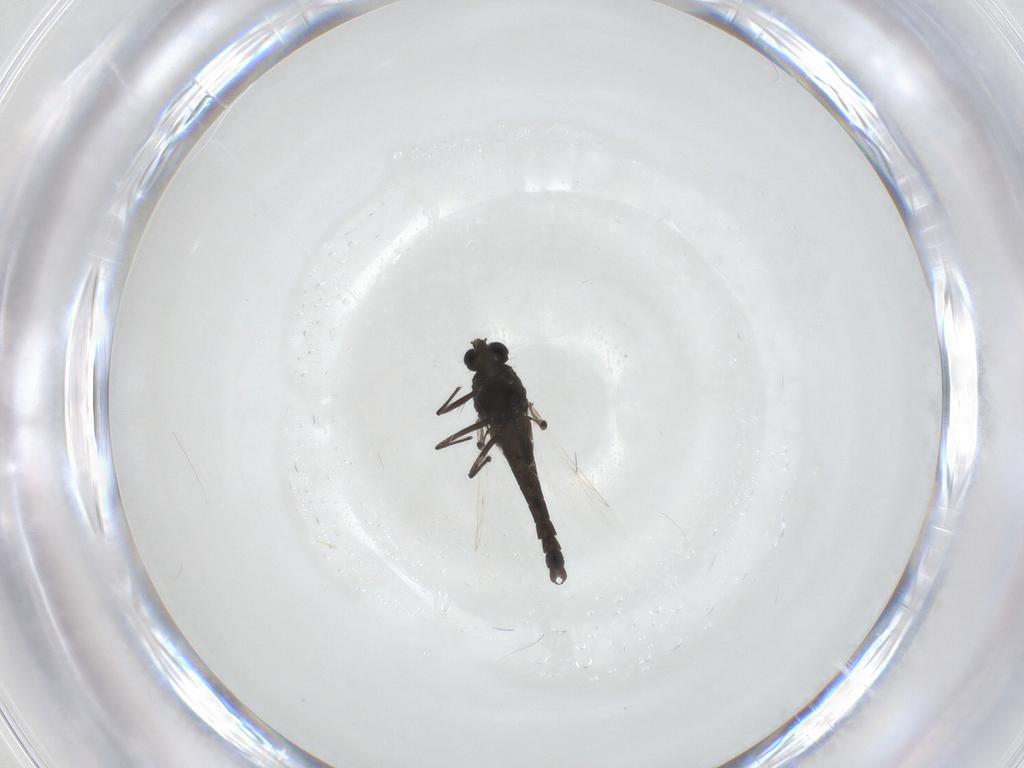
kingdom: Animalia
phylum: Arthropoda
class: Insecta
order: Diptera
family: Chironomidae
